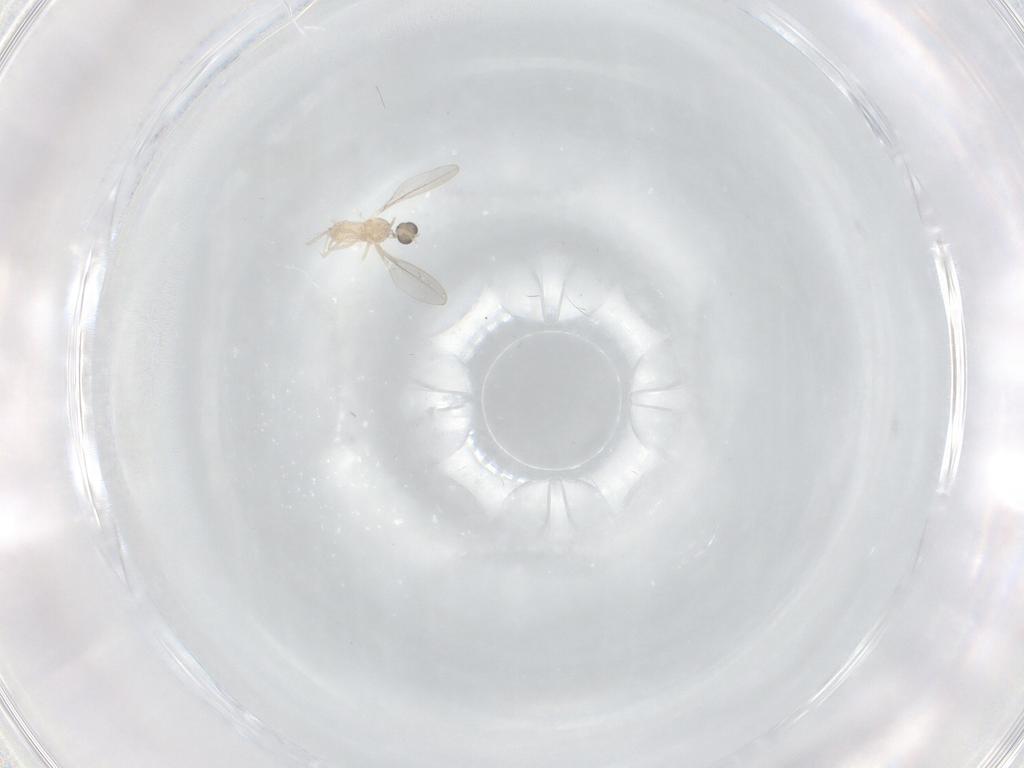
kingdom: Animalia
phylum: Arthropoda
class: Insecta
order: Diptera
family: Cecidomyiidae
